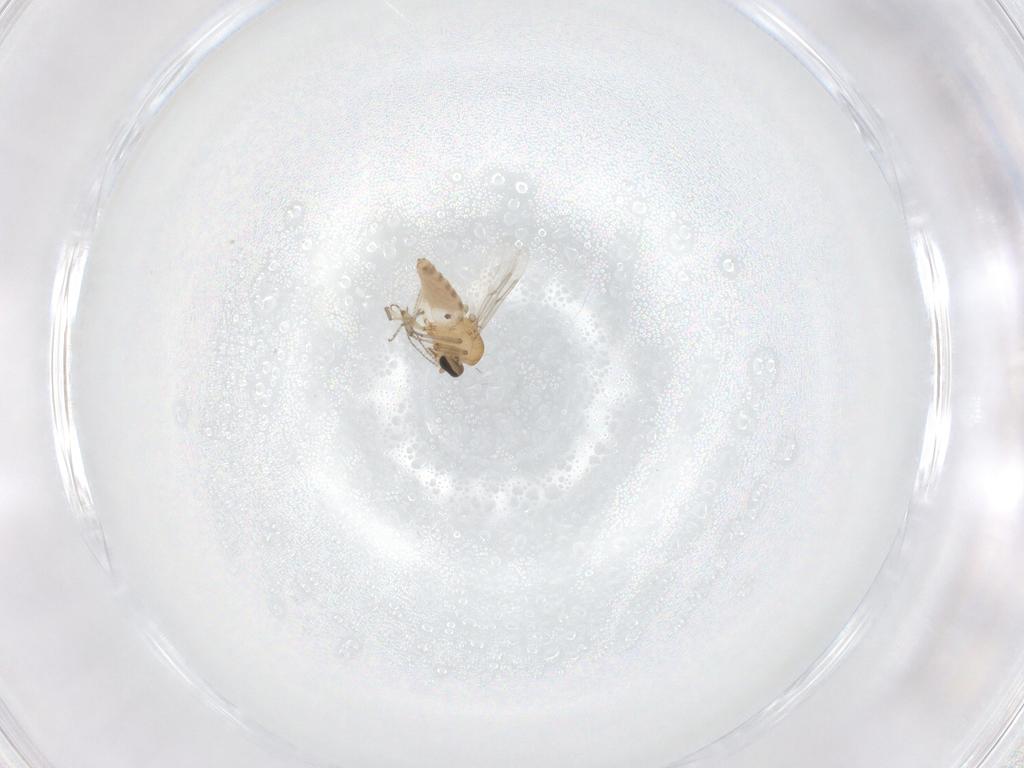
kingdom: Animalia
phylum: Arthropoda
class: Insecta
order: Diptera
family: Ceratopogonidae
